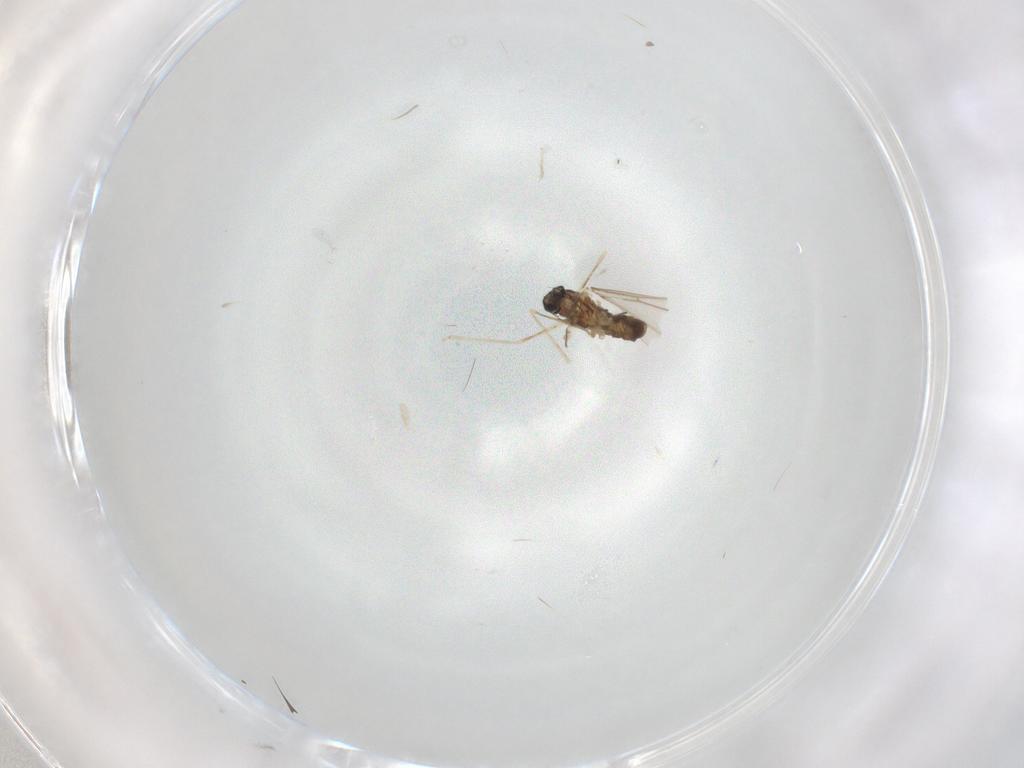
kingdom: Animalia
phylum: Arthropoda
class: Insecta
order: Diptera
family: Cecidomyiidae
